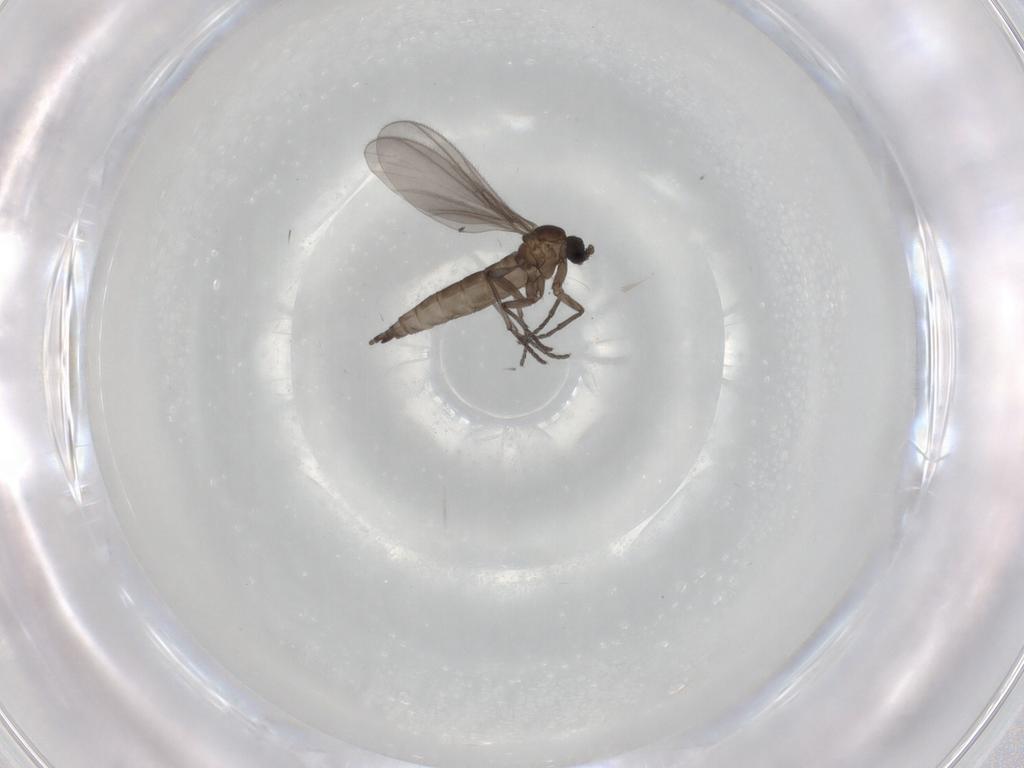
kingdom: Animalia
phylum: Arthropoda
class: Insecta
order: Diptera
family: Sciaridae
